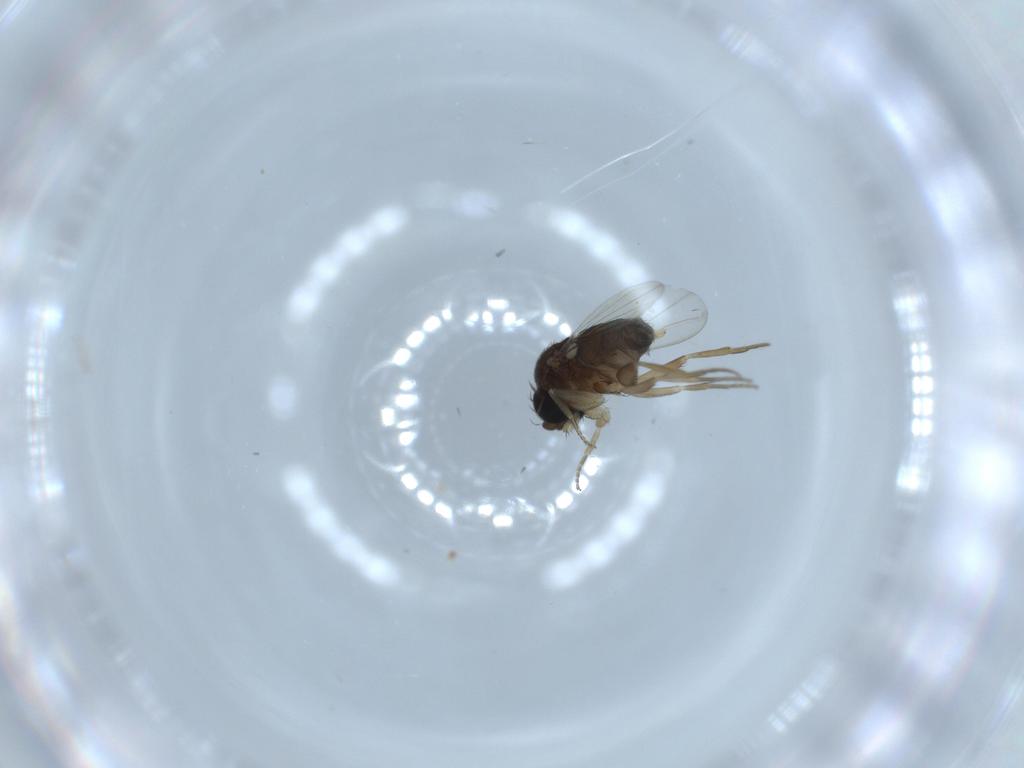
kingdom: Animalia
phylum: Arthropoda
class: Insecta
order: Diptera
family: Phoridae
